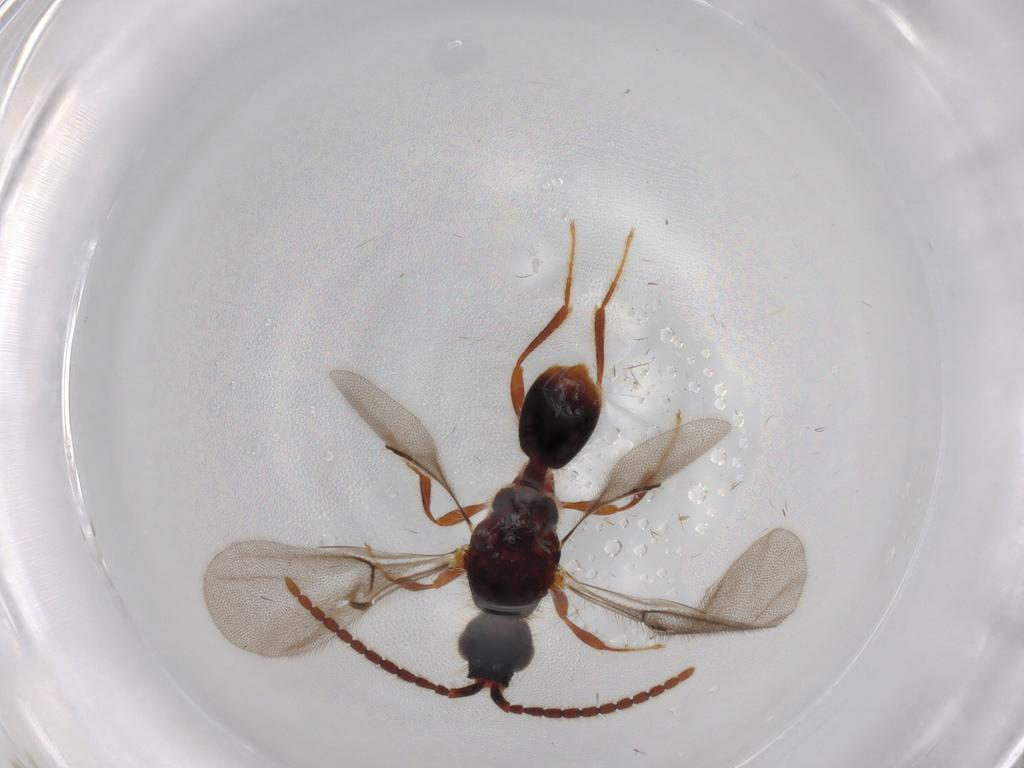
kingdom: Animalia
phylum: Arthropoda
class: Insecta
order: Hymenoptera
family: Diapriidae
